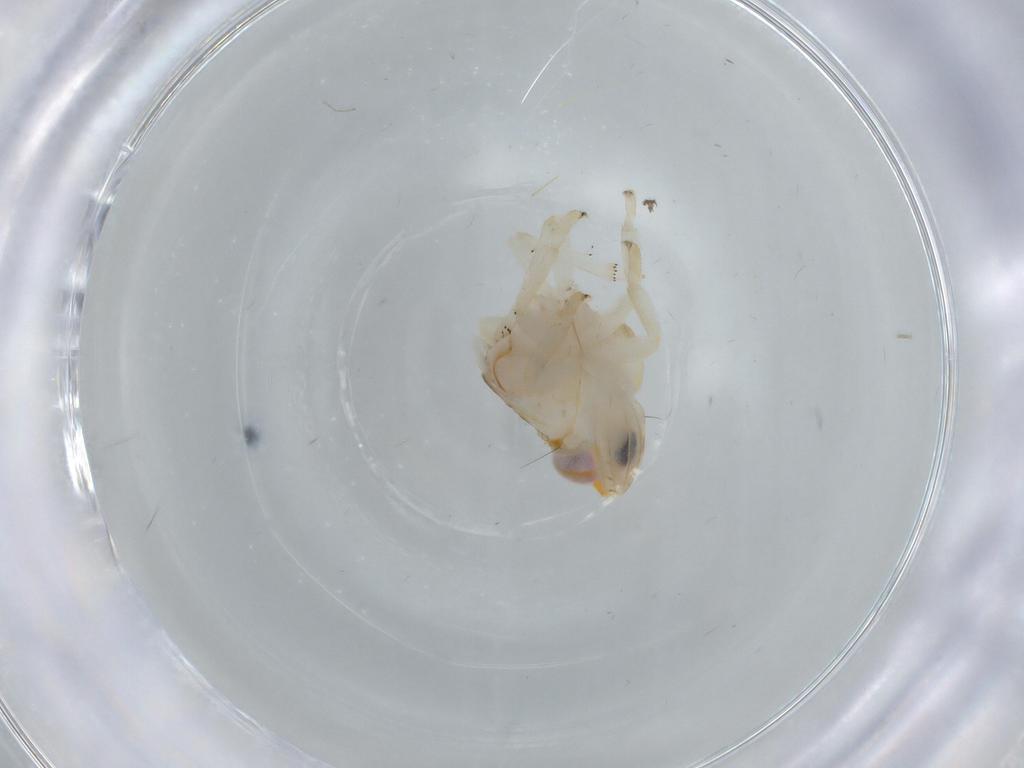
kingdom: Animalia
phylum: Arthropoda
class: Insecta
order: Hemiptera
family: Nogodinidae
